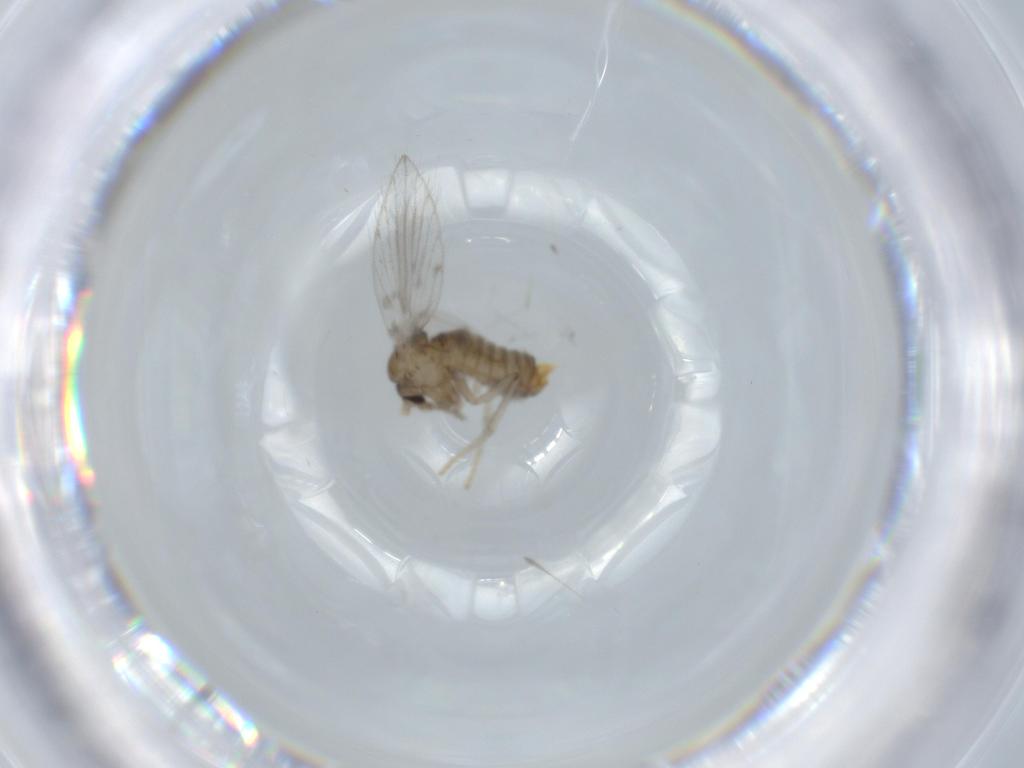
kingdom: Animalia
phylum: Arthropoda
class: Insecta
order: Diptera
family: Psychodidae
